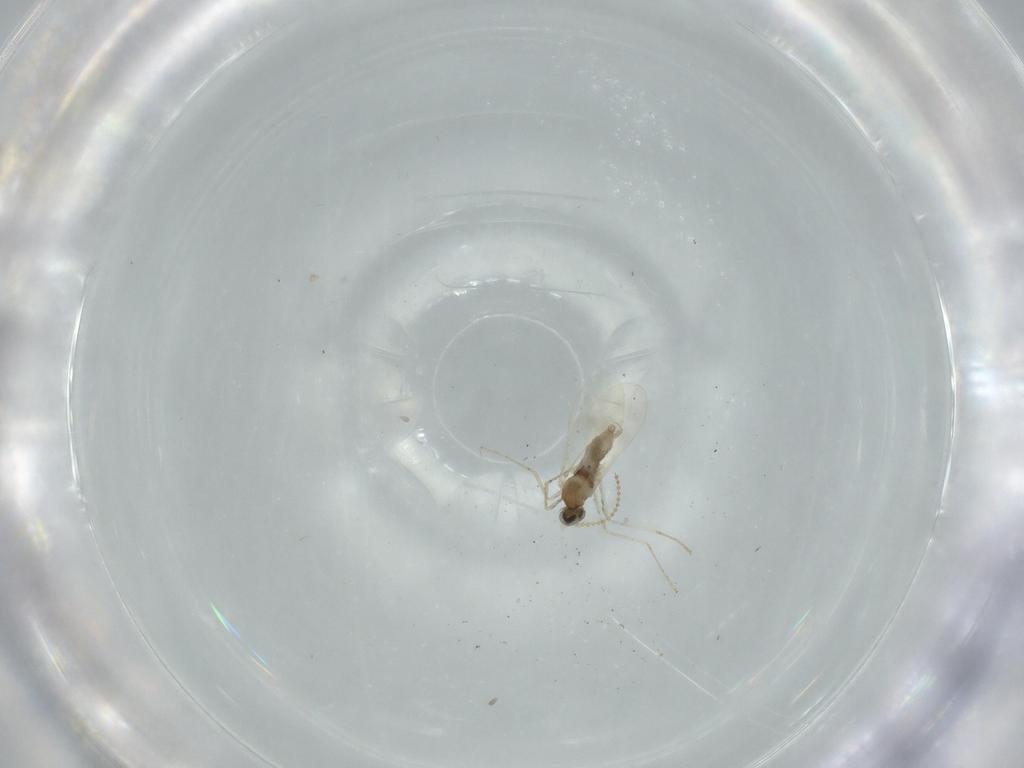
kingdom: Animalia
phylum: Arthropoda
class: Insecta
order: Diptera
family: Cecidomyiidae
